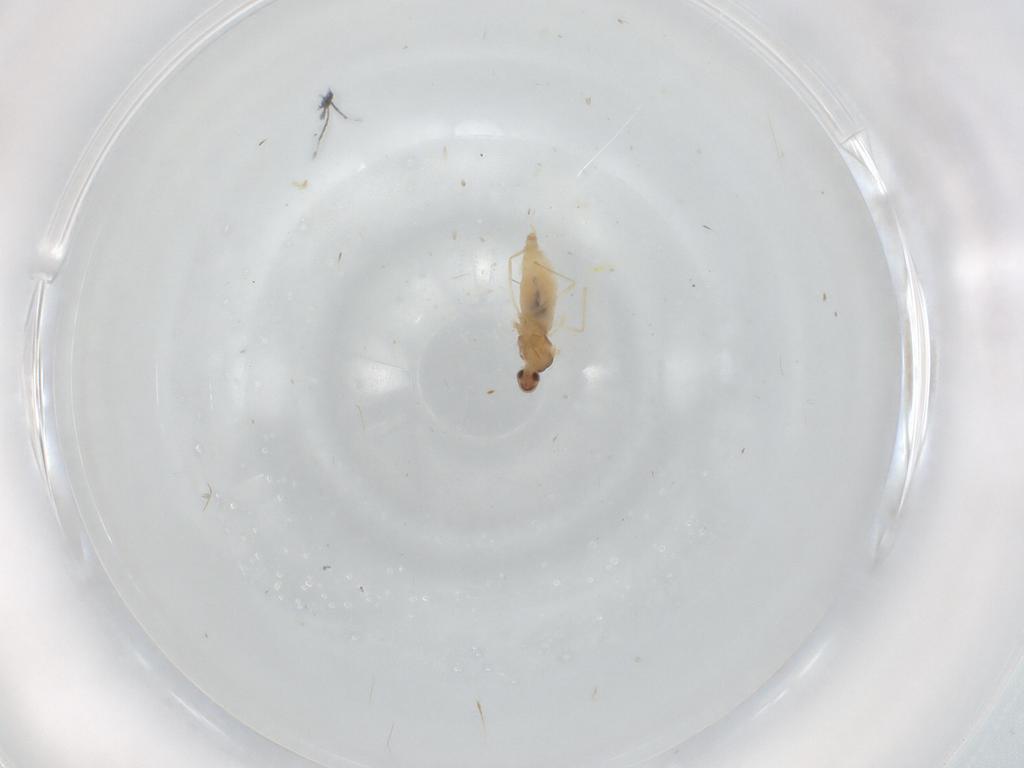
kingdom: Animalia
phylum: Arthropoda
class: Insecta
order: Diptera
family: Cecidomyiidae
